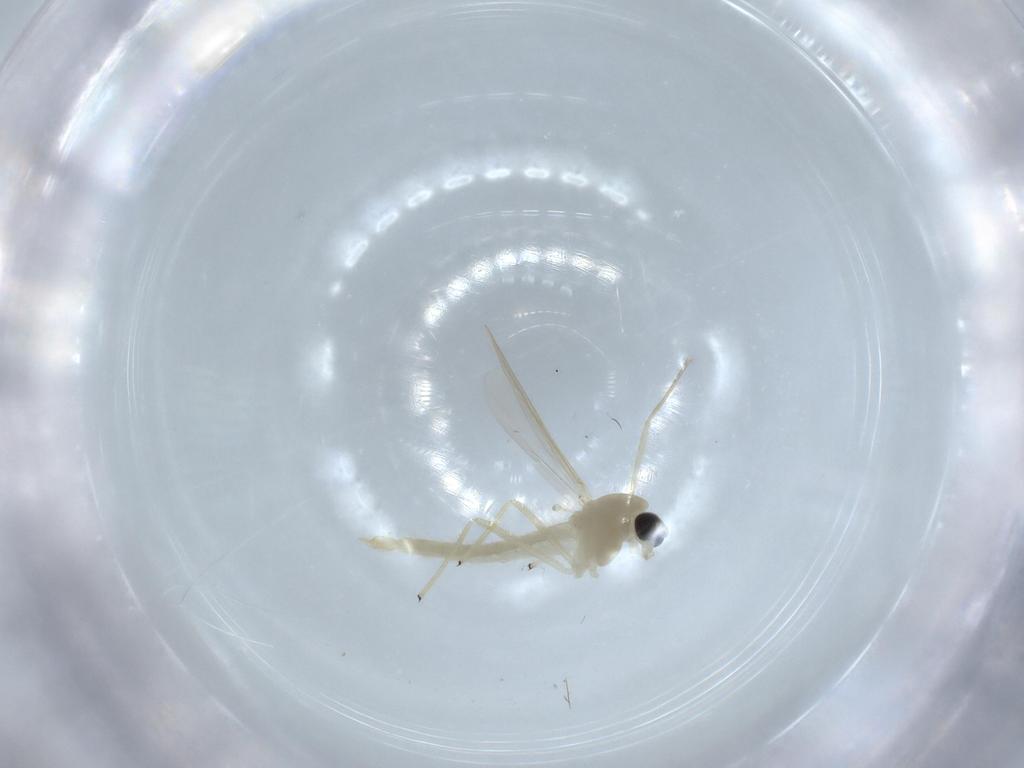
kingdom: Animalia
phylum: Arthropoda
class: Insecta
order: Diptera
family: Chironomidae
